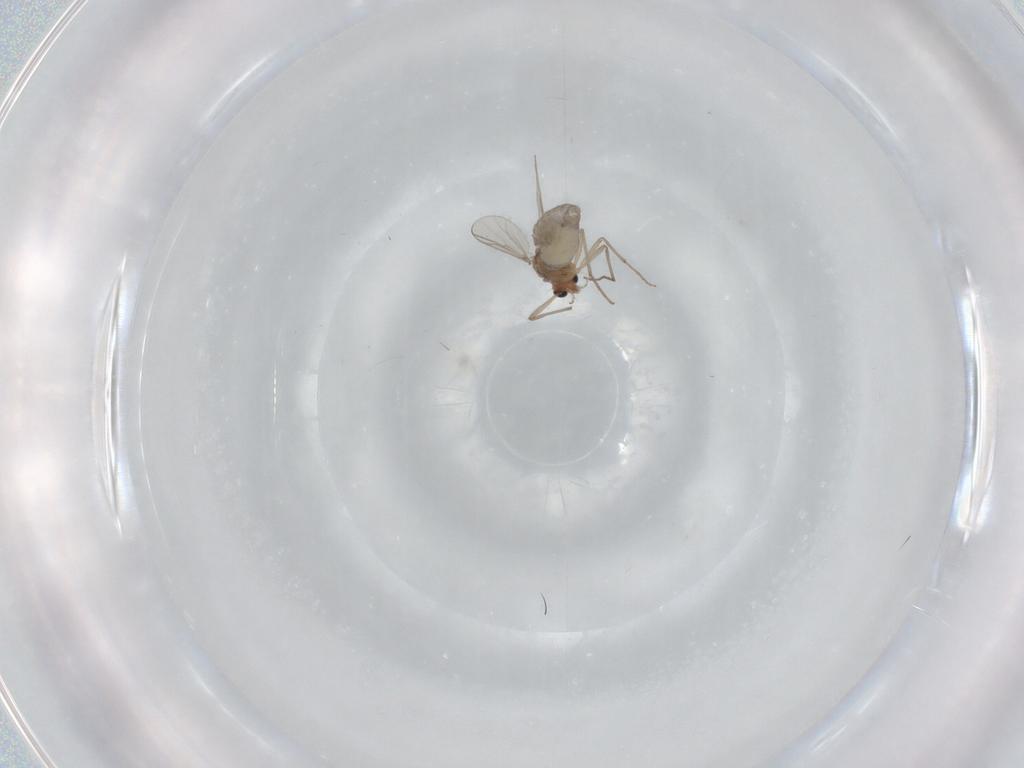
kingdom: Animalia
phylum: Arthropoda
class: Insecta
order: Diptera
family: Chironomidae
